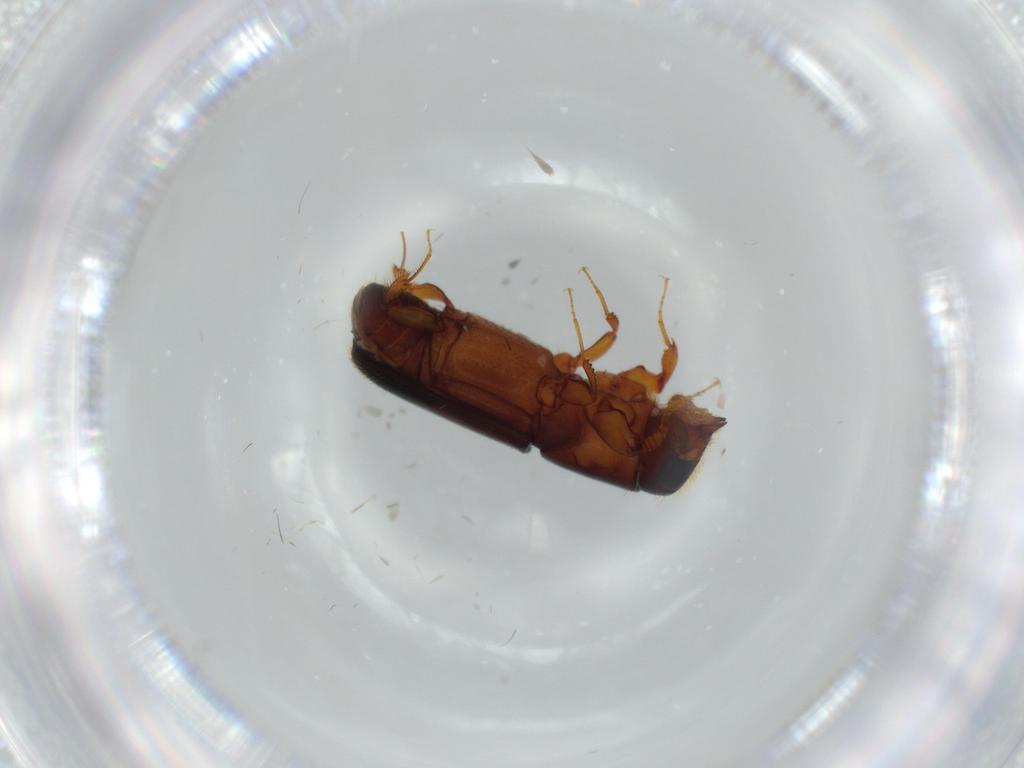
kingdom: Animalia
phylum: Arthropoda
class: Insecta
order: Coleoptera
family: Curculionidae
